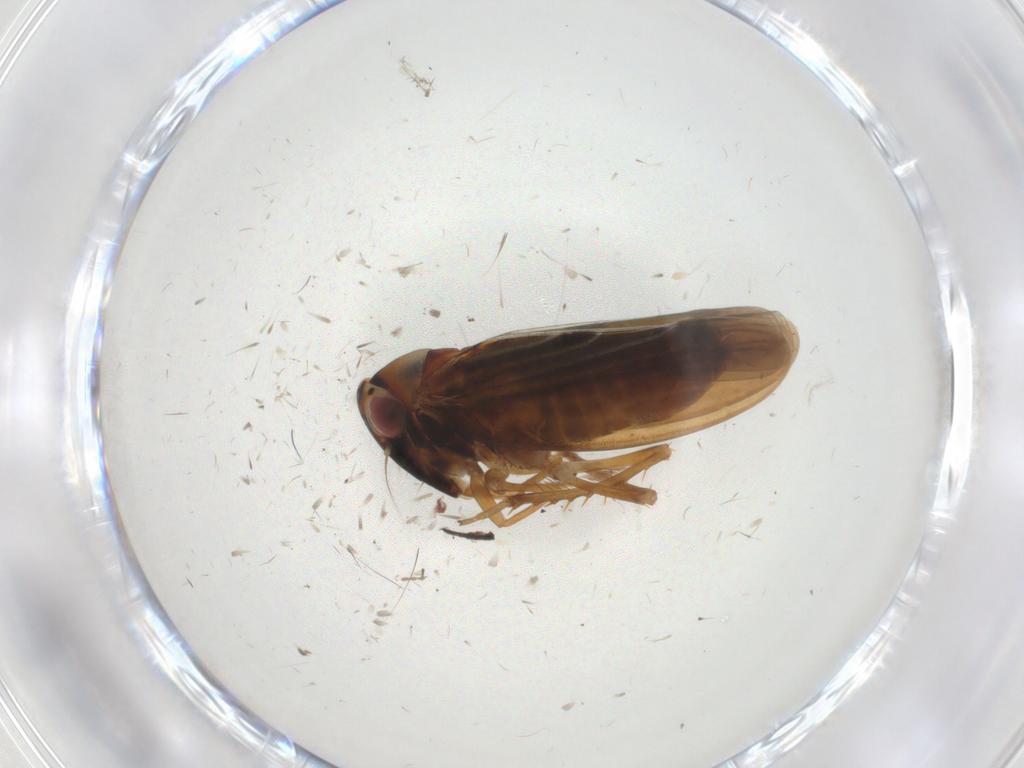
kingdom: Animalia
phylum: Arthropoda
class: Insecta
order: Hemiptera
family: Cicadellidae
